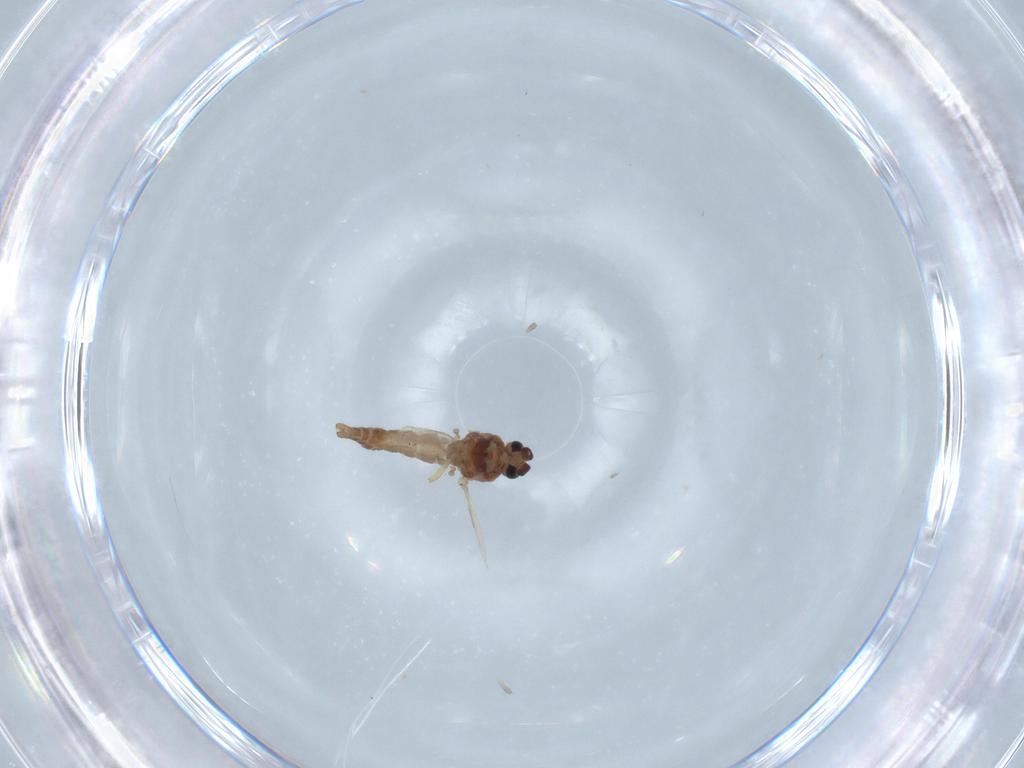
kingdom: Animalia
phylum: Arthropoda
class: Insecta
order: Diptera
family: Ceratopogonidae
